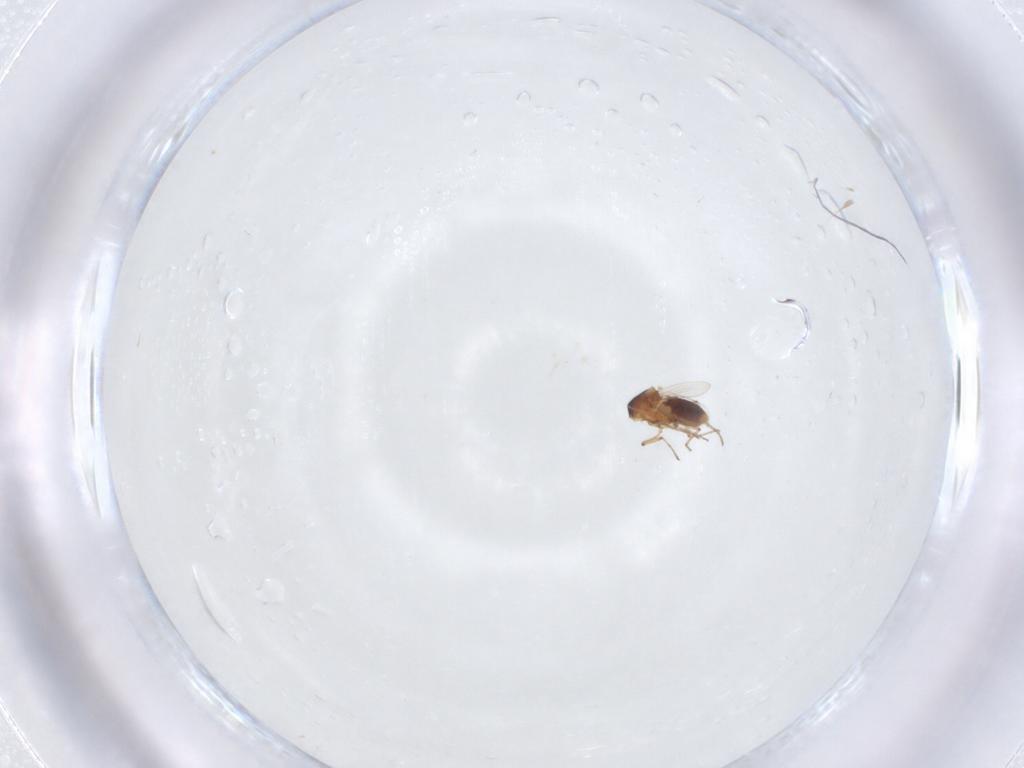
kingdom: Animalia
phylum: Arthropoda
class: Insecta
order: Diptera
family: Ceratopogonidae
